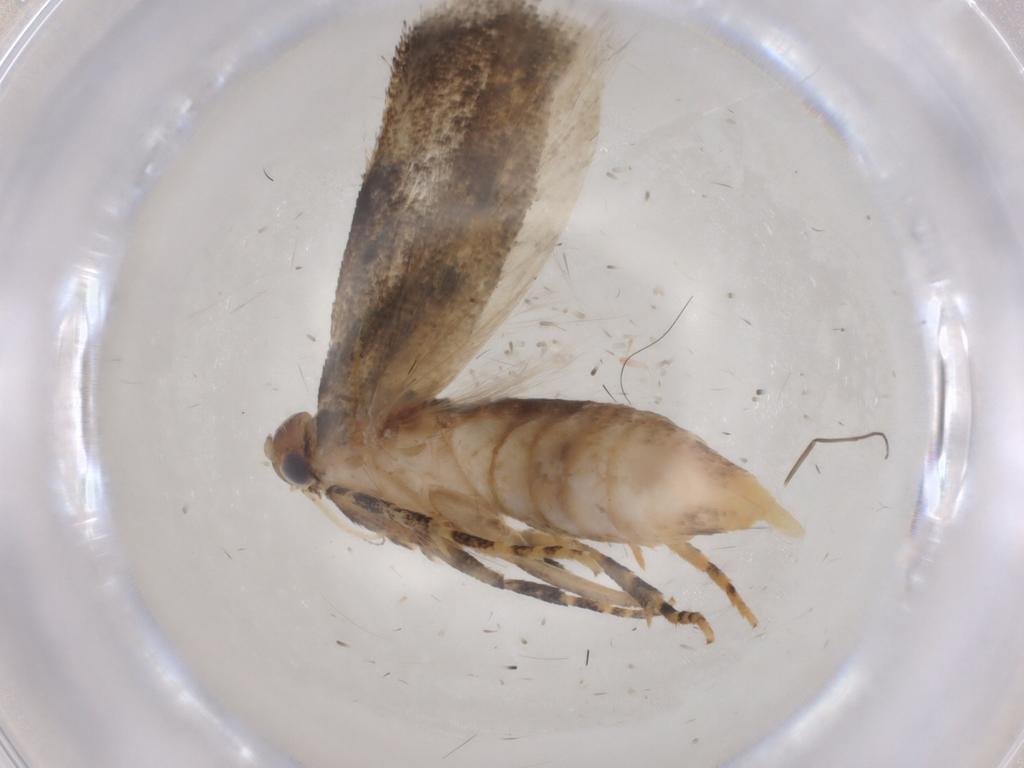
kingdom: Animalia
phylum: Arthropoda
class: Insecta
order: Lepidoptera
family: Gelechiidae
